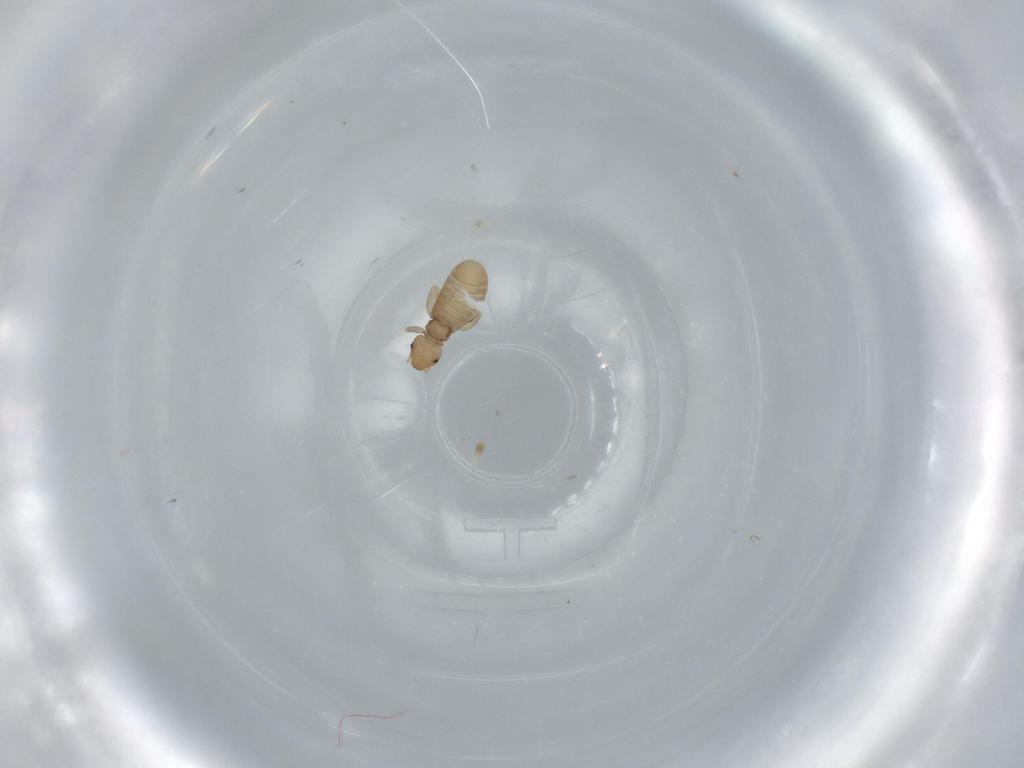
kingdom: Animalia
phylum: Arthropoda
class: Insecta
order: Psocodea
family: Liposcelididae
